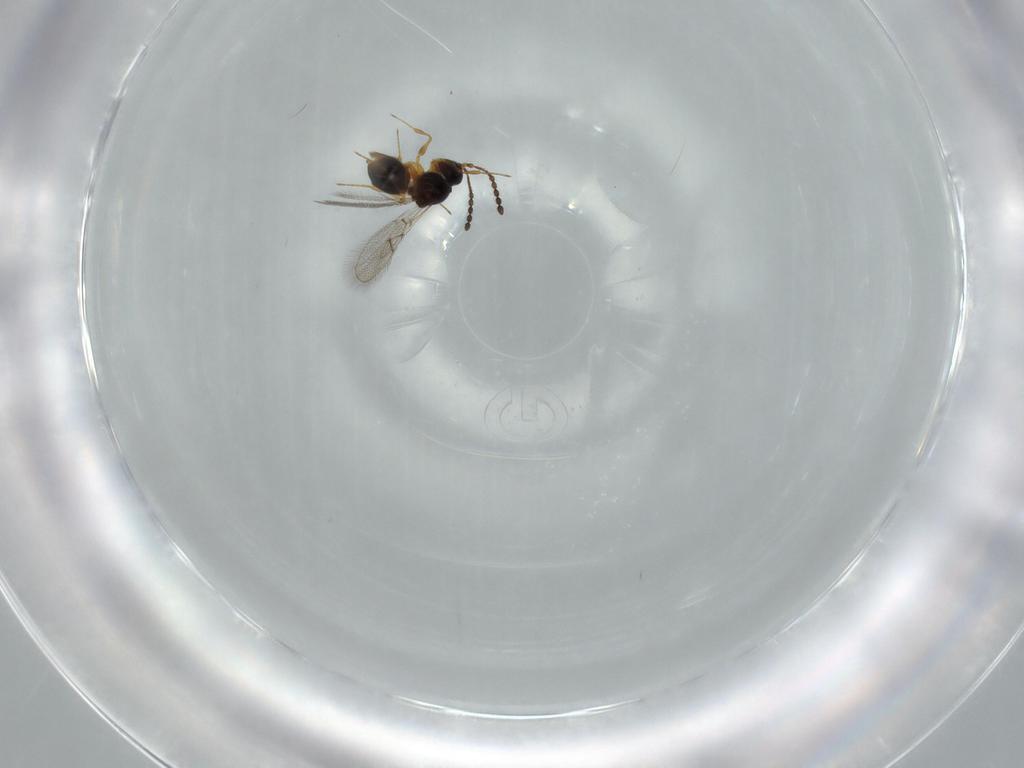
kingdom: Animalia
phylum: Arthropoda
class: Insecta
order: Hymenoptera
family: Figitidae
